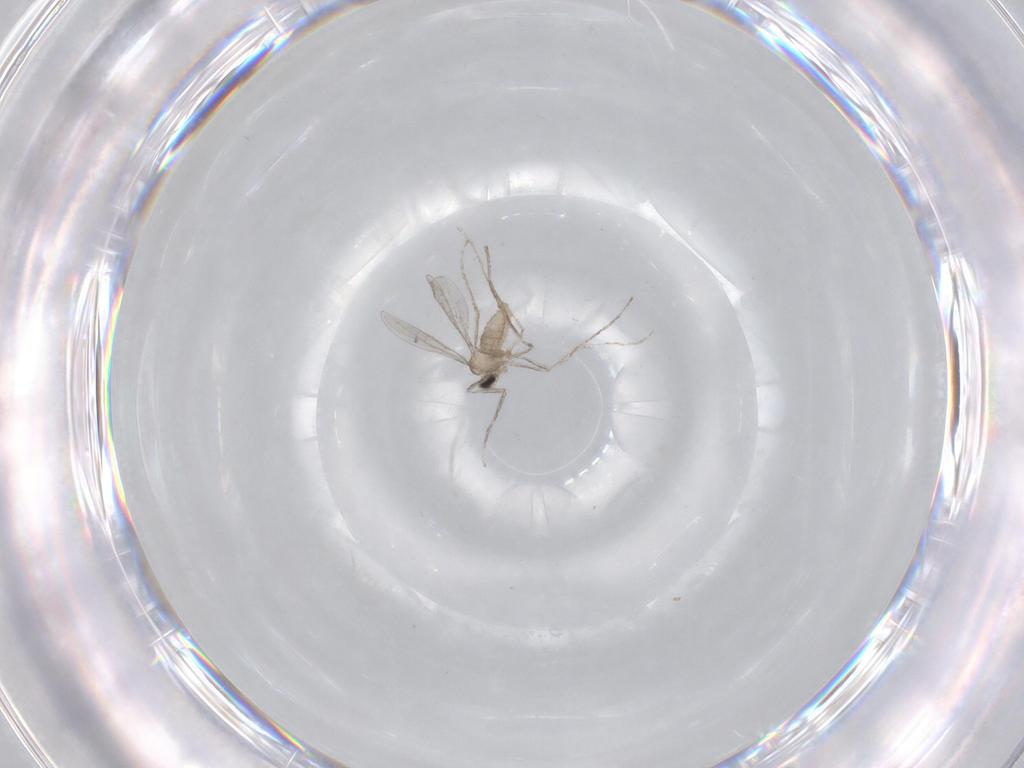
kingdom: Animalia
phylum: Arthropoda
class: Insecta
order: Diptera
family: Cecidomyiidae
